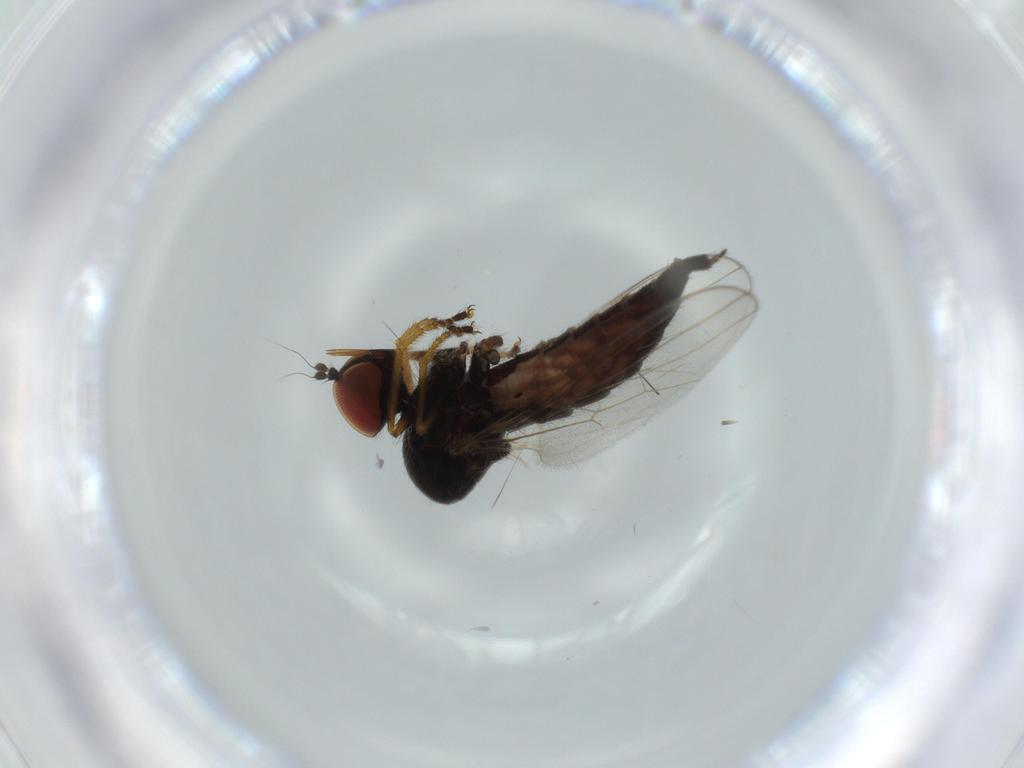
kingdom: Animalia
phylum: Arthropoda
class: Insecta
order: Diptera
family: Cecidomyiidae
